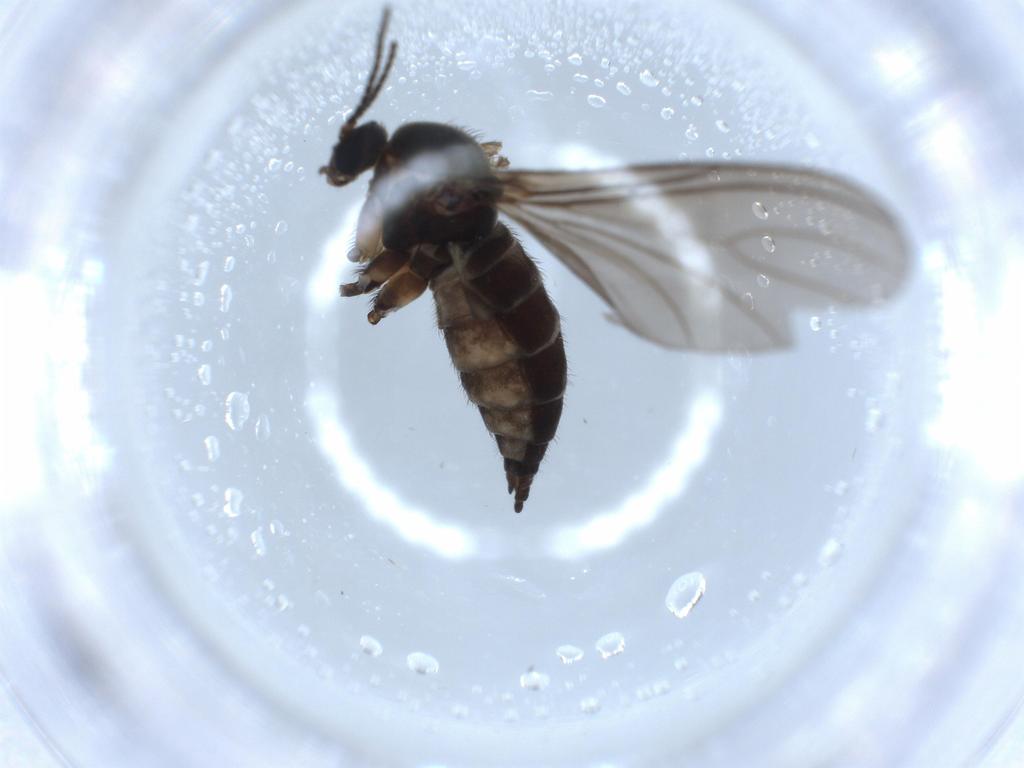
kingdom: Animalia
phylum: Arthropoda
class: Insecta
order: Diptera
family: Sciaridae
